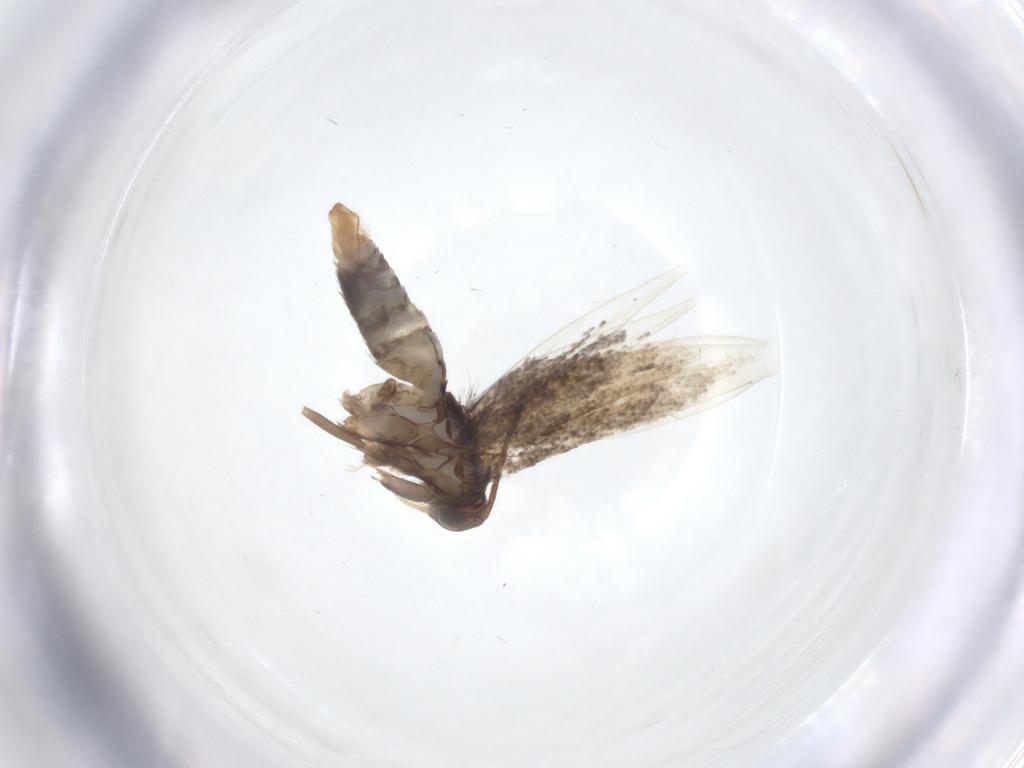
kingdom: Animalia
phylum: Arthropoda
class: Insecta
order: Lepidoptera
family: Elachistidae
